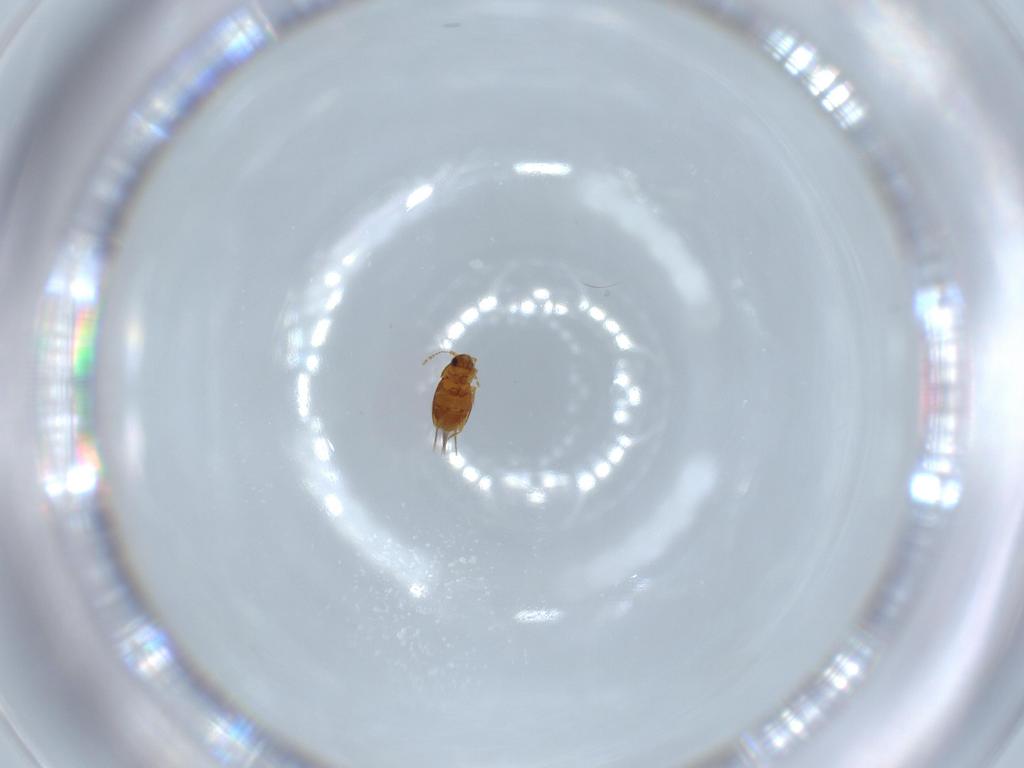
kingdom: Animalia
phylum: Arthropoda
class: Insecta
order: Coleoptera
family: Ptiliidae
